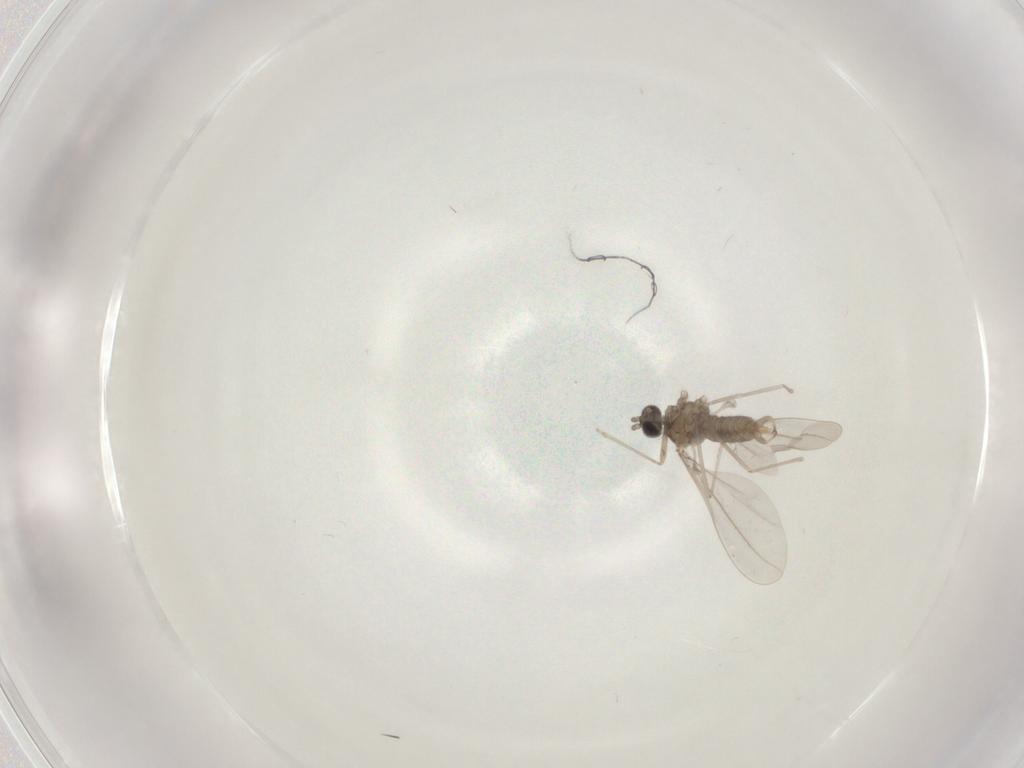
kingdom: Animalia
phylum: Arthropoda
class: Insecta
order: Diptera
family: Cecidomyiidae
